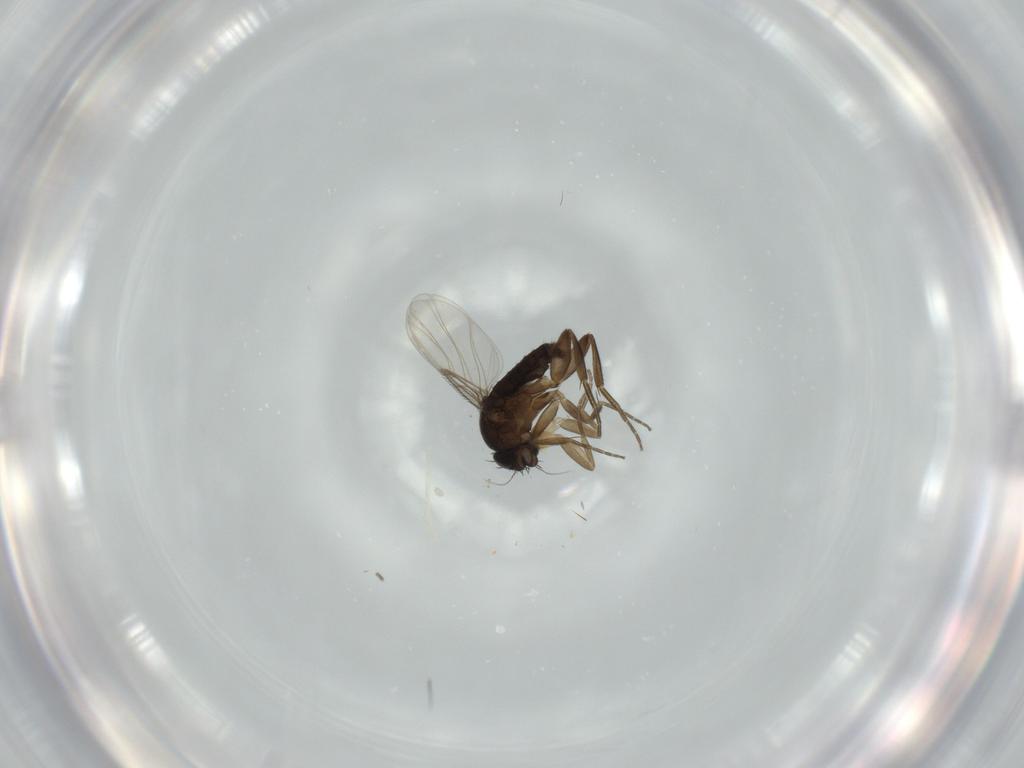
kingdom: Animalia
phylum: Arthropoda
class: Insecta
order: Diptera
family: Phoridae
